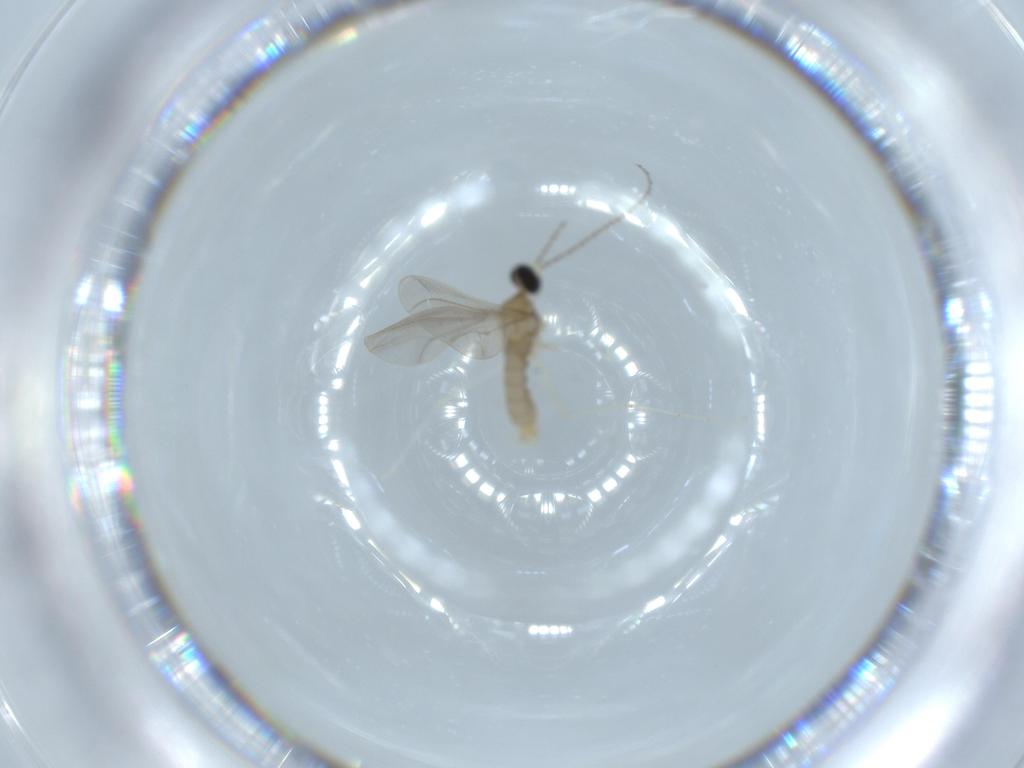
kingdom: Animalia
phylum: Arthropoda
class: Insecta
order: Diptera
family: Cecidomyiidae
